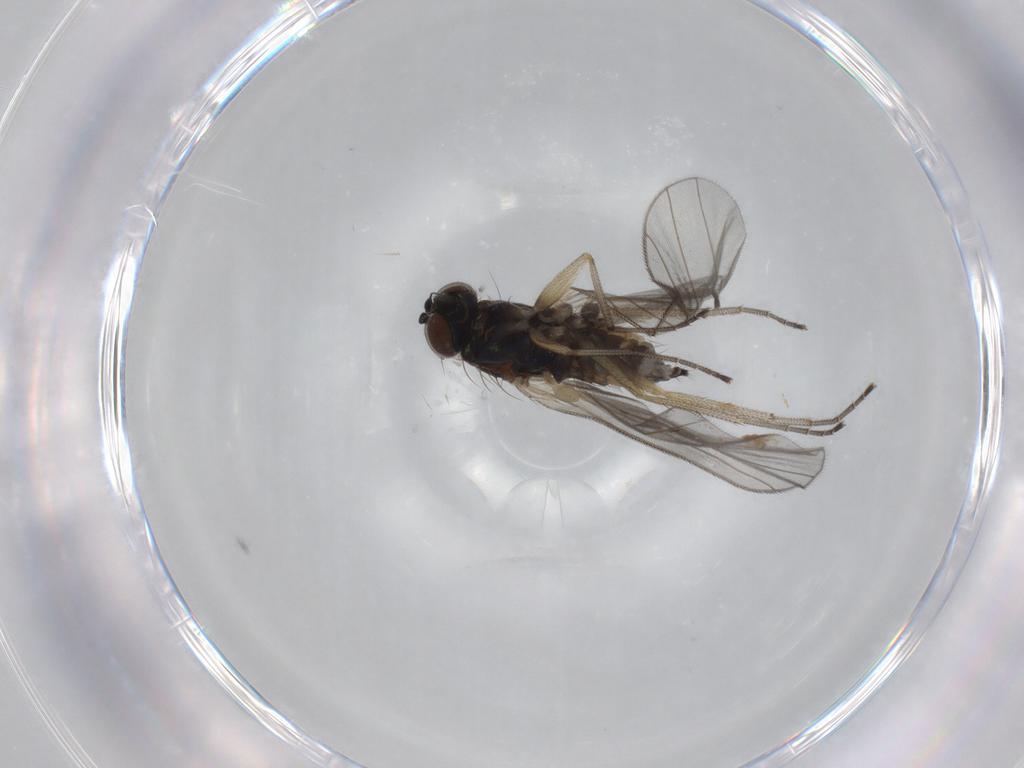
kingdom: Animalia
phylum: Arthropoda
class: Insecta
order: Diptera
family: Dolichopodidae
